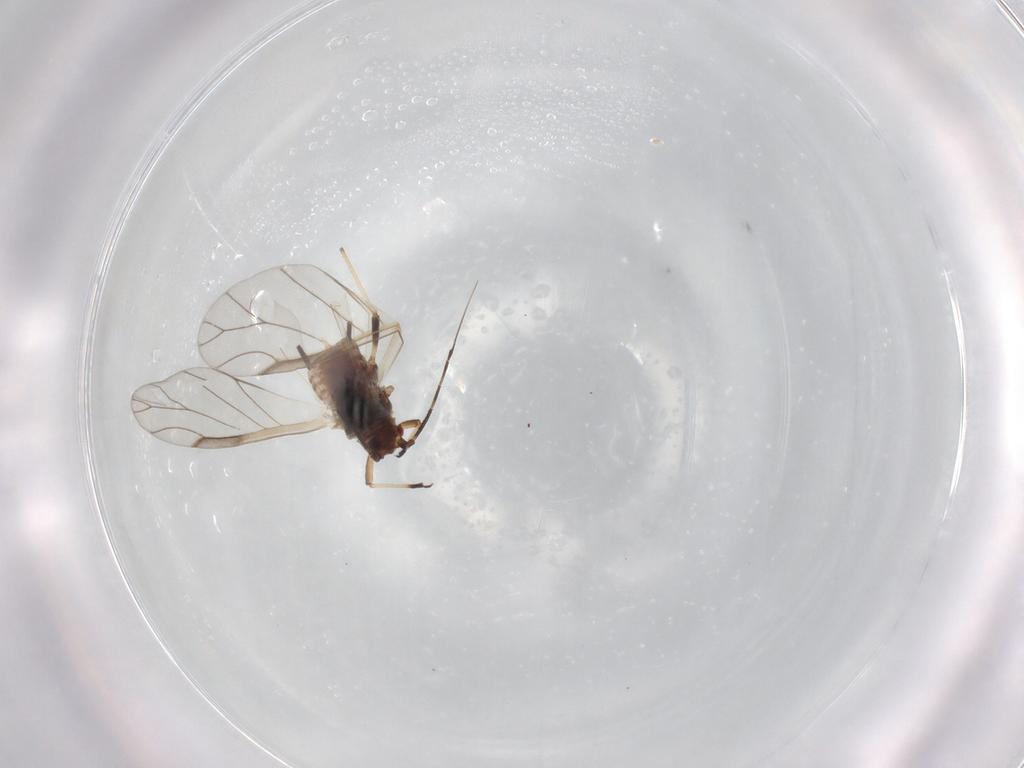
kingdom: Animalia
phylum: Arthropoda
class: Insecta
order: Hemiptera
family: Aphididae
